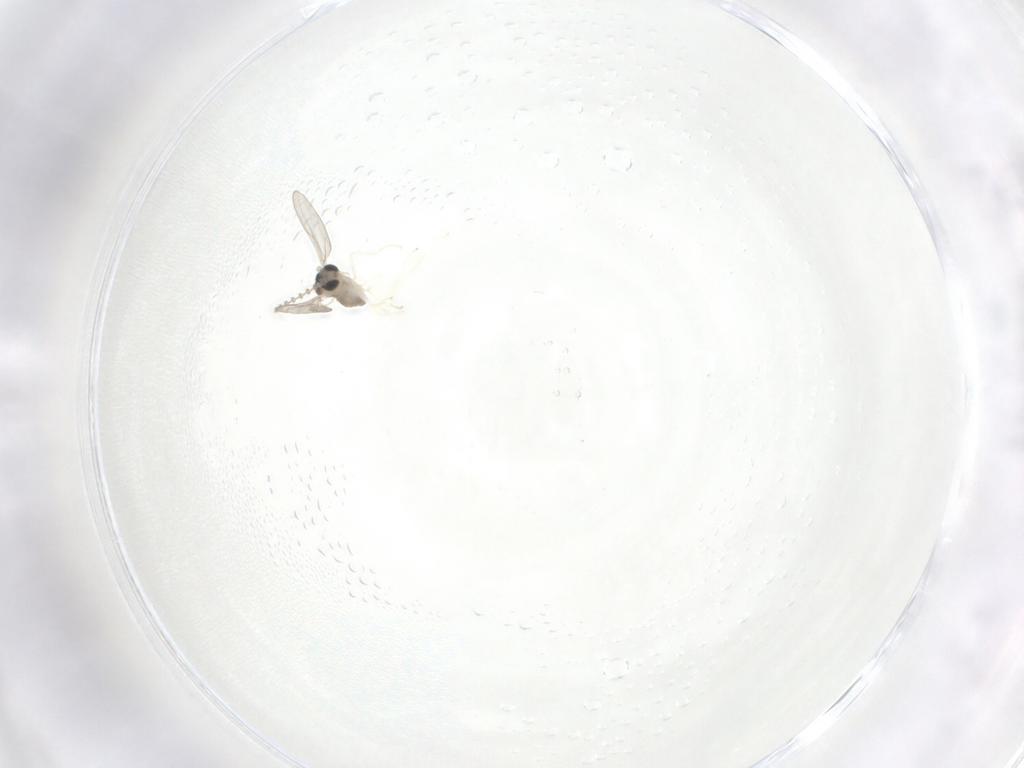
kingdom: Animalia
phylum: Arthropoda
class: Insecta
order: Diptera
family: Cecidomyiidae
